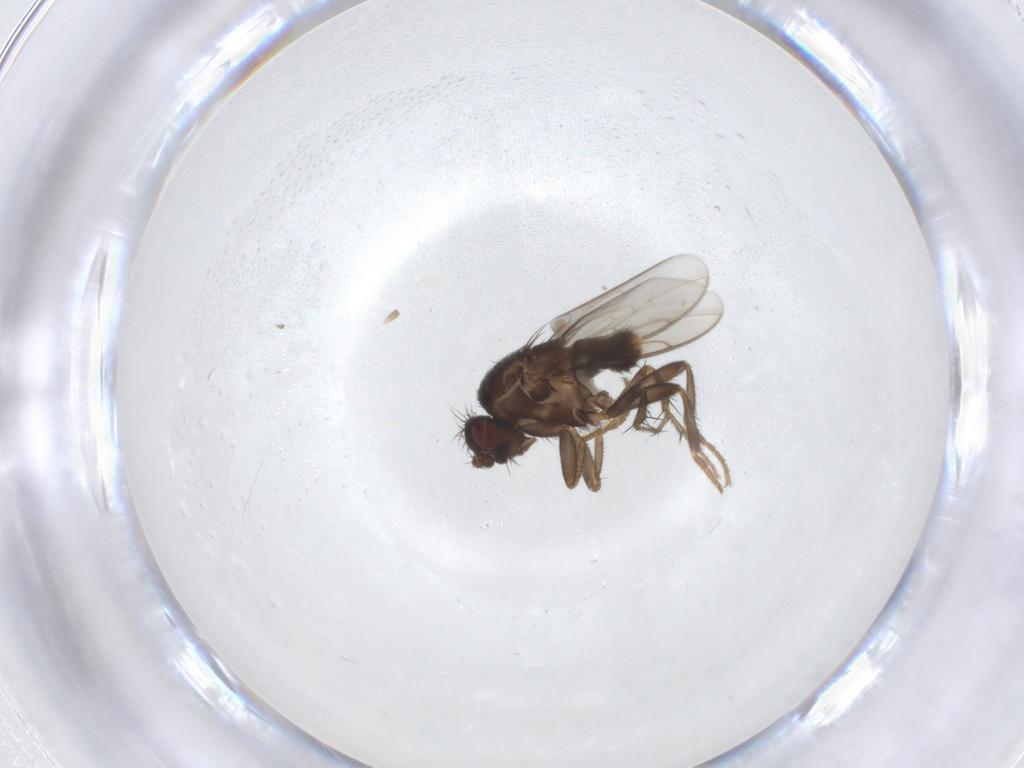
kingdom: Animalia
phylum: Arthropoda
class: Insecta
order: Diptera
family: Sphaeroceridae
